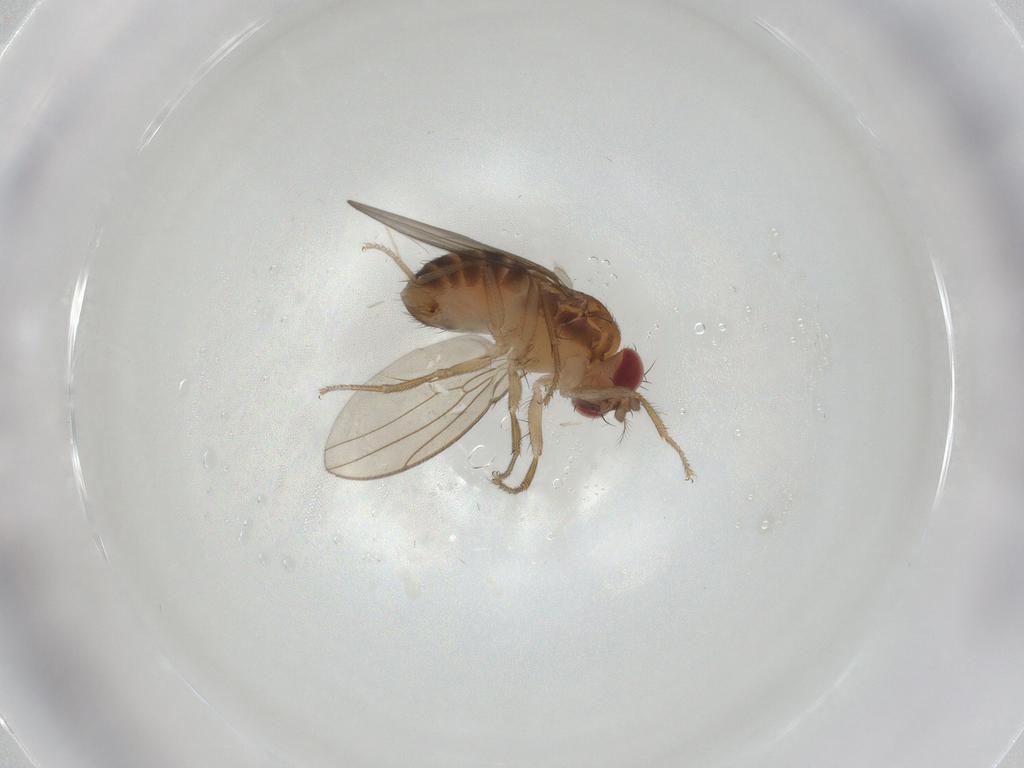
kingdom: Animalia
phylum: Arthropoda
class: Insecta
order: Diptera
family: Drosophilidae
